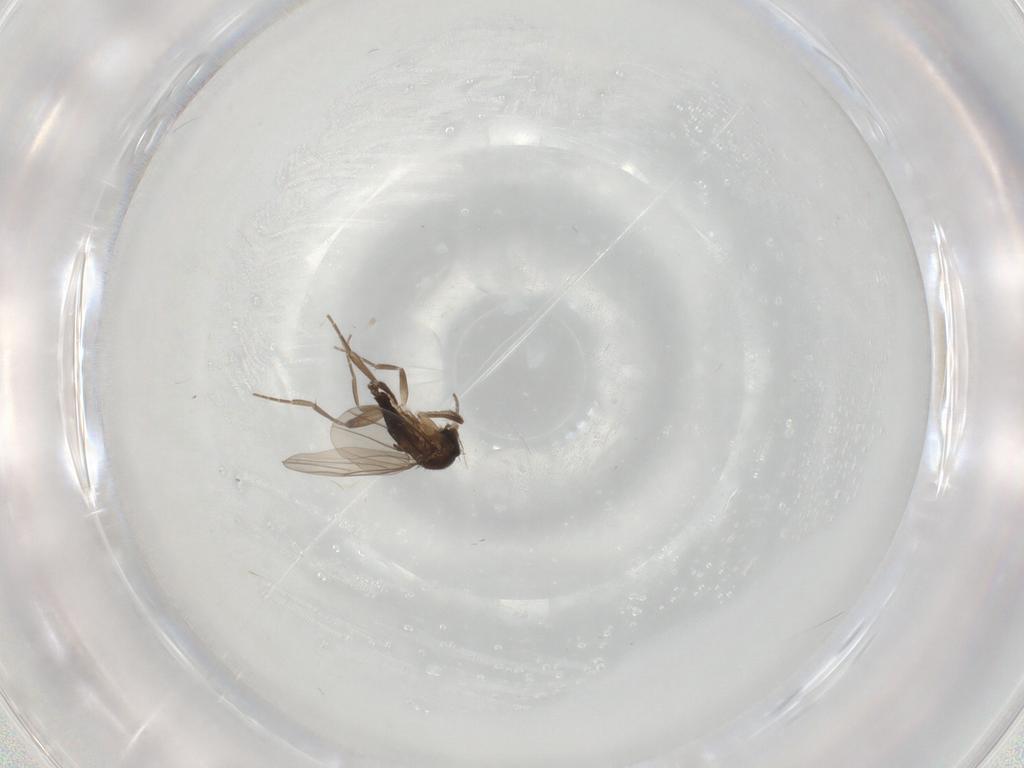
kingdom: Animalia
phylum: Arthropoda
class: Insecta
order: Diptera
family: Phoridae
